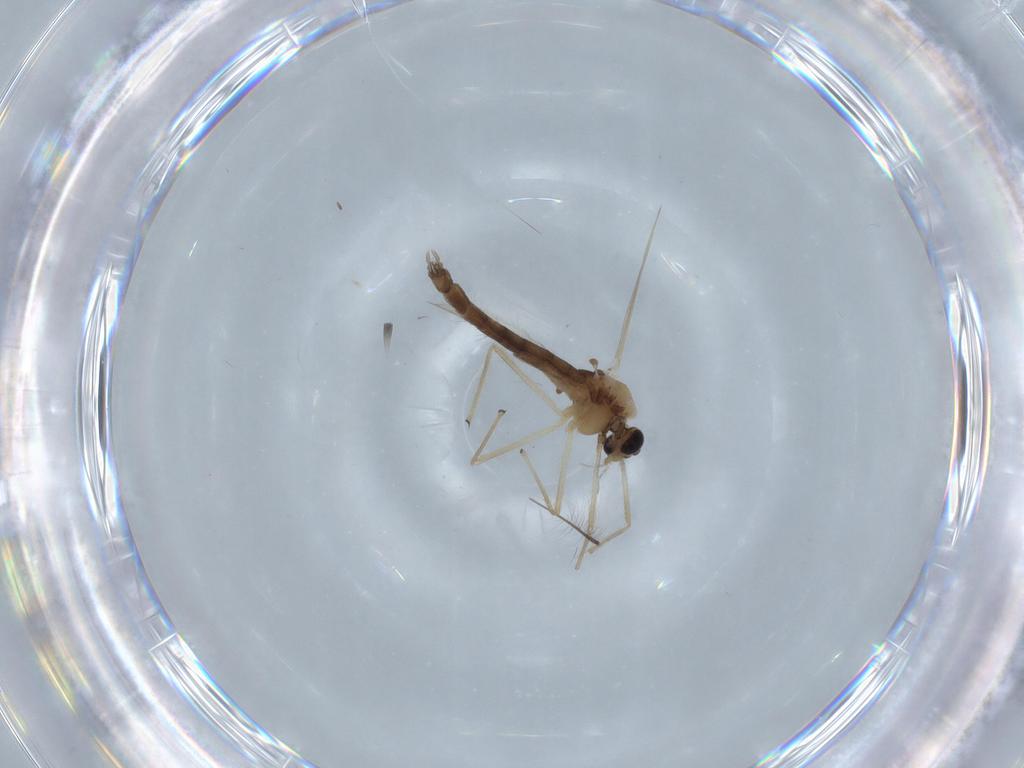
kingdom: Animalia
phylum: Arthropoda
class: Insecta
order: Diptera
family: Chironomidae
